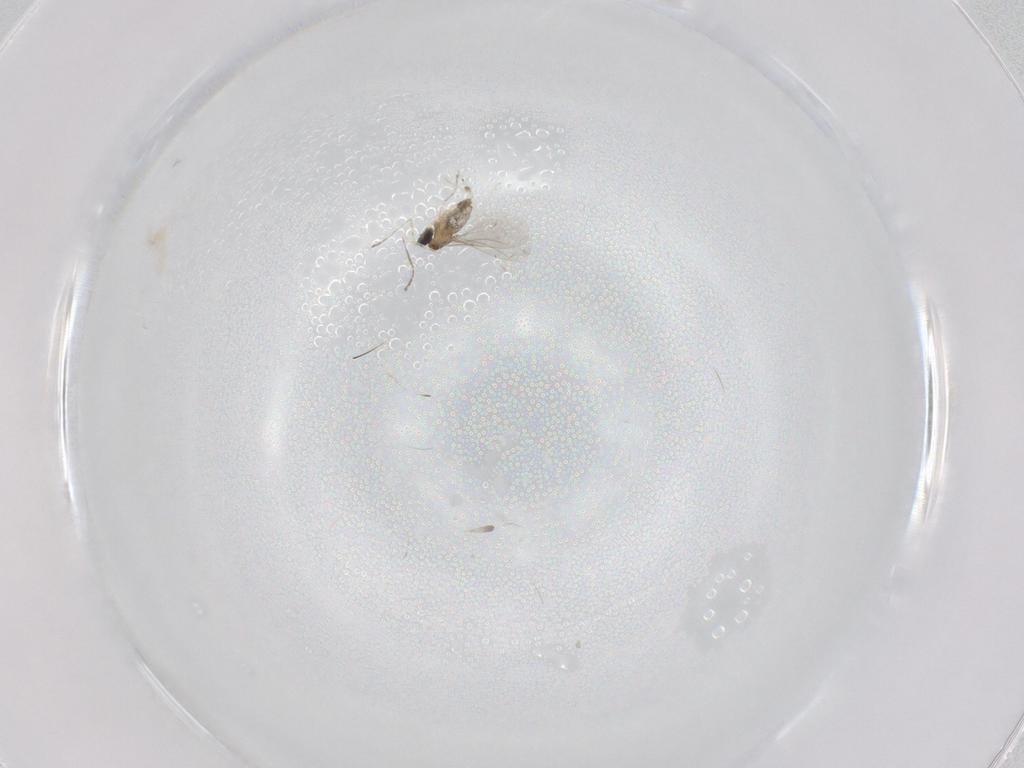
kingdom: Animalia
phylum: Arthropoda
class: Insecta
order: Diptera
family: Cecidomyiidae
